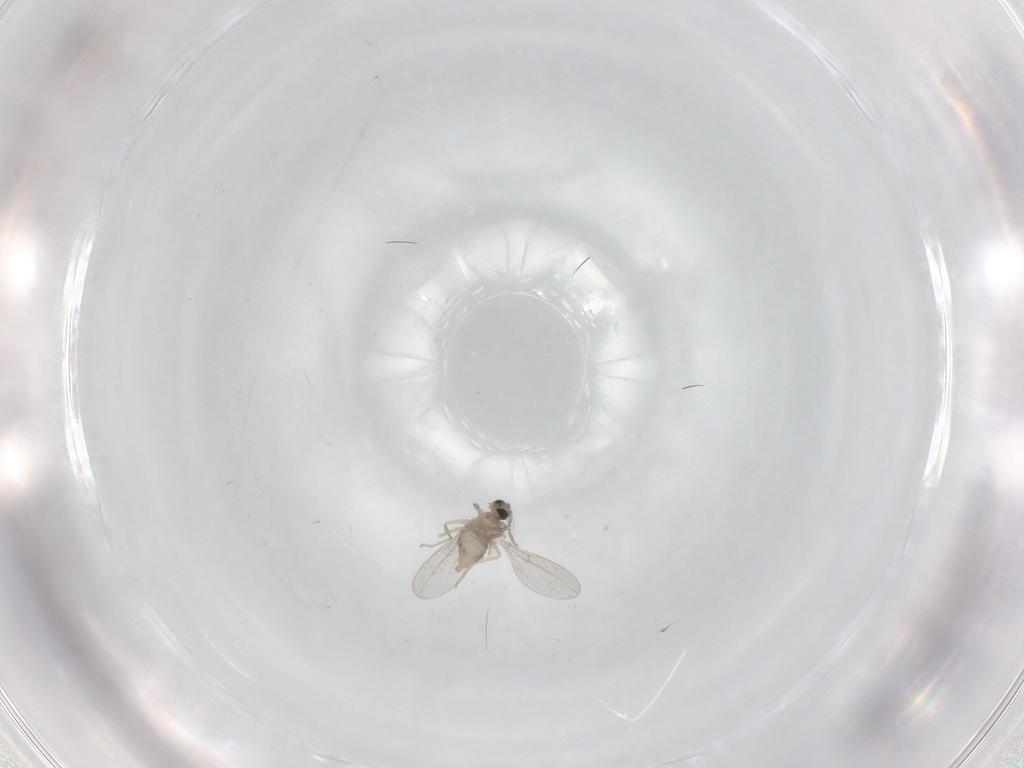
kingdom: Animalia
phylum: Arthropoda
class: Insecta
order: Diptera
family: Cecidomyiidae
